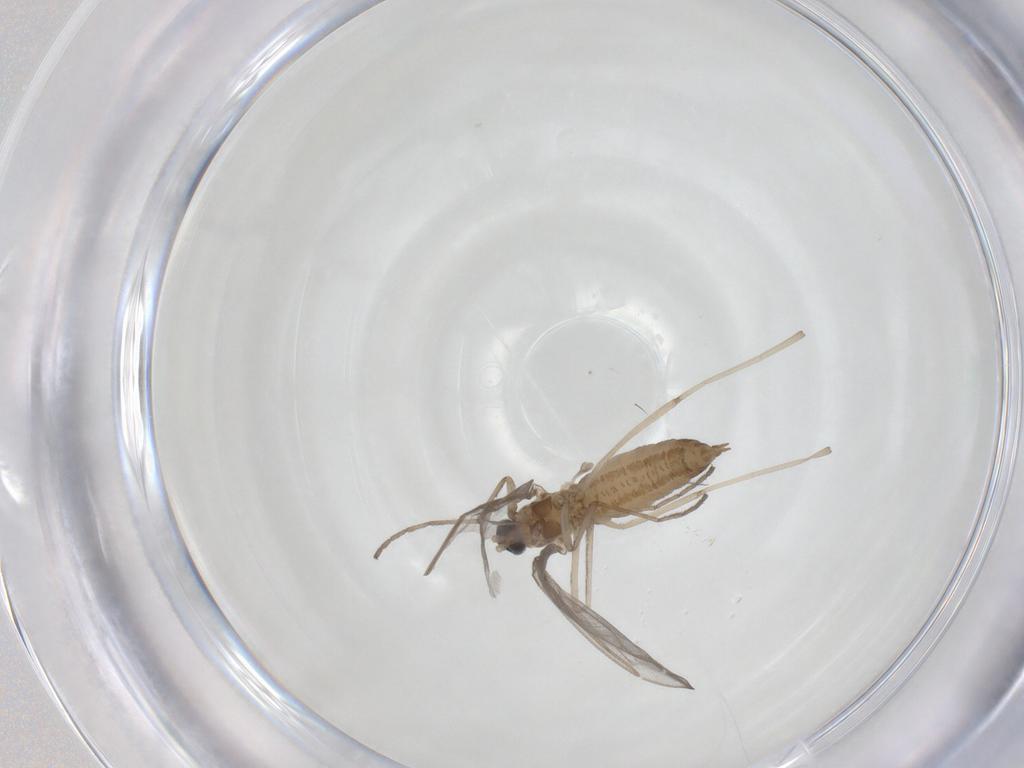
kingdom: Animalia
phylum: Arthropoda
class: Insecta
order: Diptera
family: Cecidomyiidae
